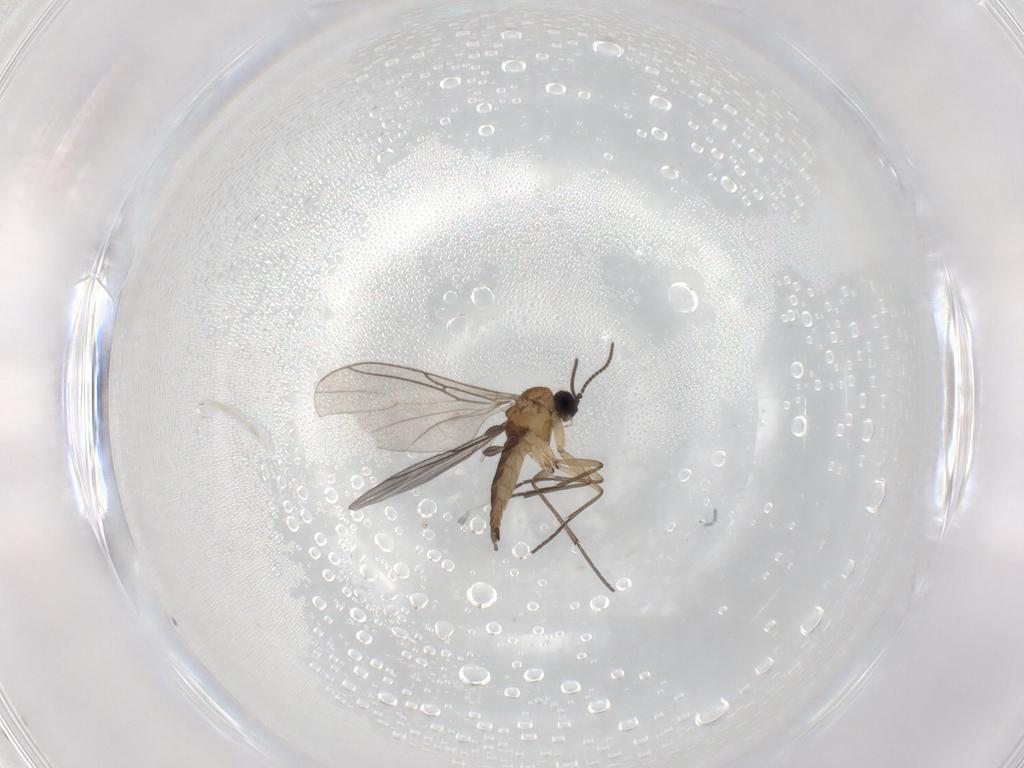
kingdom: Animalia
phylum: Arthropoda
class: Insecta
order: Diptera
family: Sciaridae
